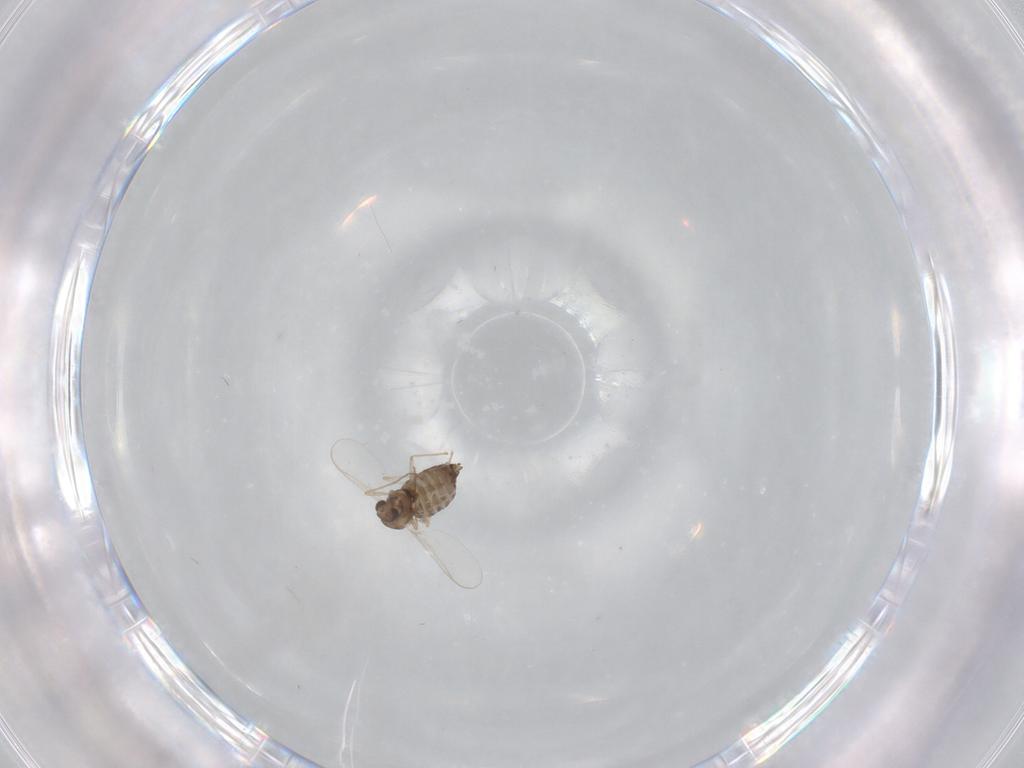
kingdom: Animalia
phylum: Arthropoda
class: Insecta
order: Diptera
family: Chironomidae
